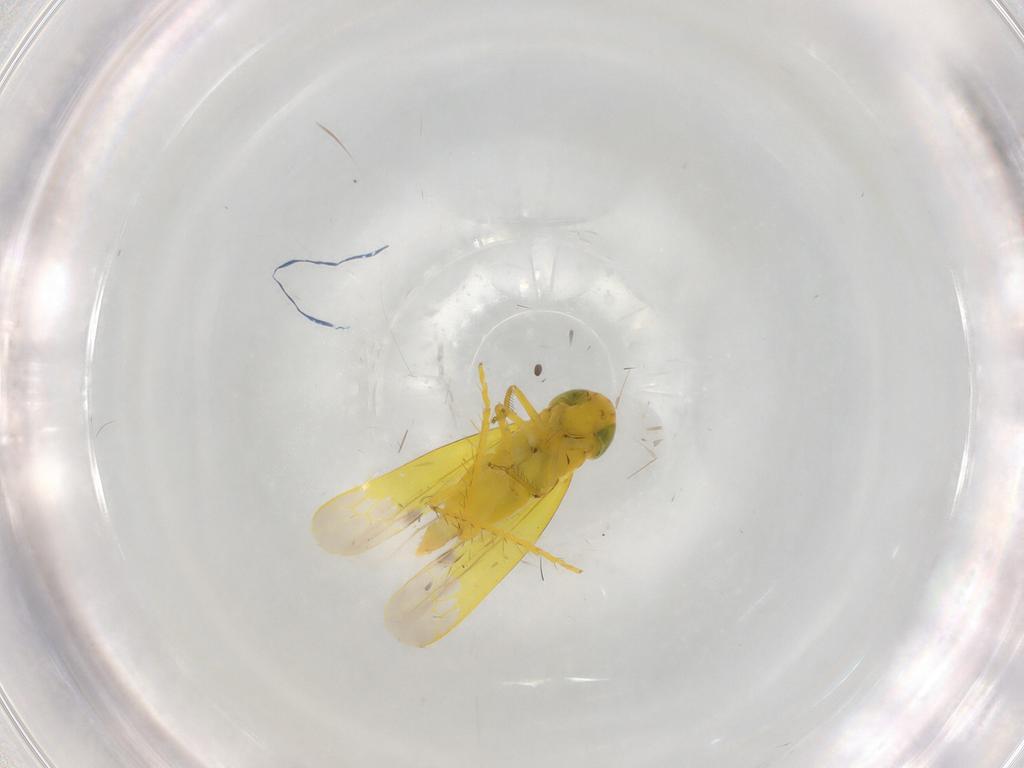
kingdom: Animalia
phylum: Arthropoda
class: Insecta
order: Hemiptera
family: Cicadellidae
